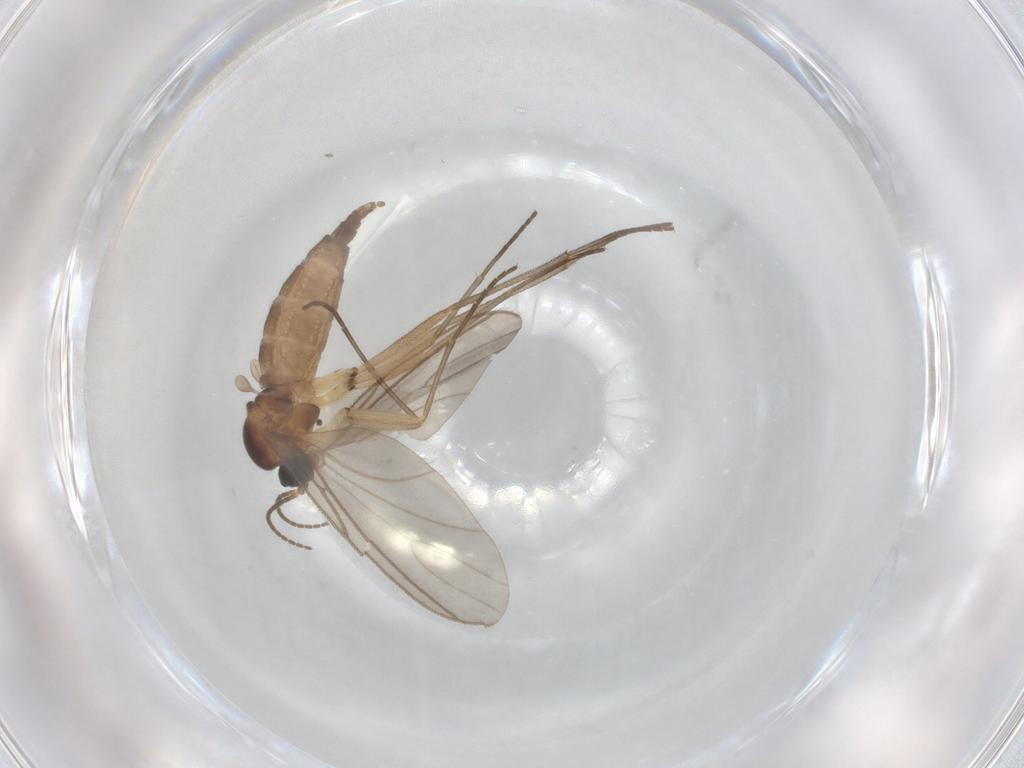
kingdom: Animalia
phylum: Arthropoda
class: Insecta
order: Diptera
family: Sciaridae
